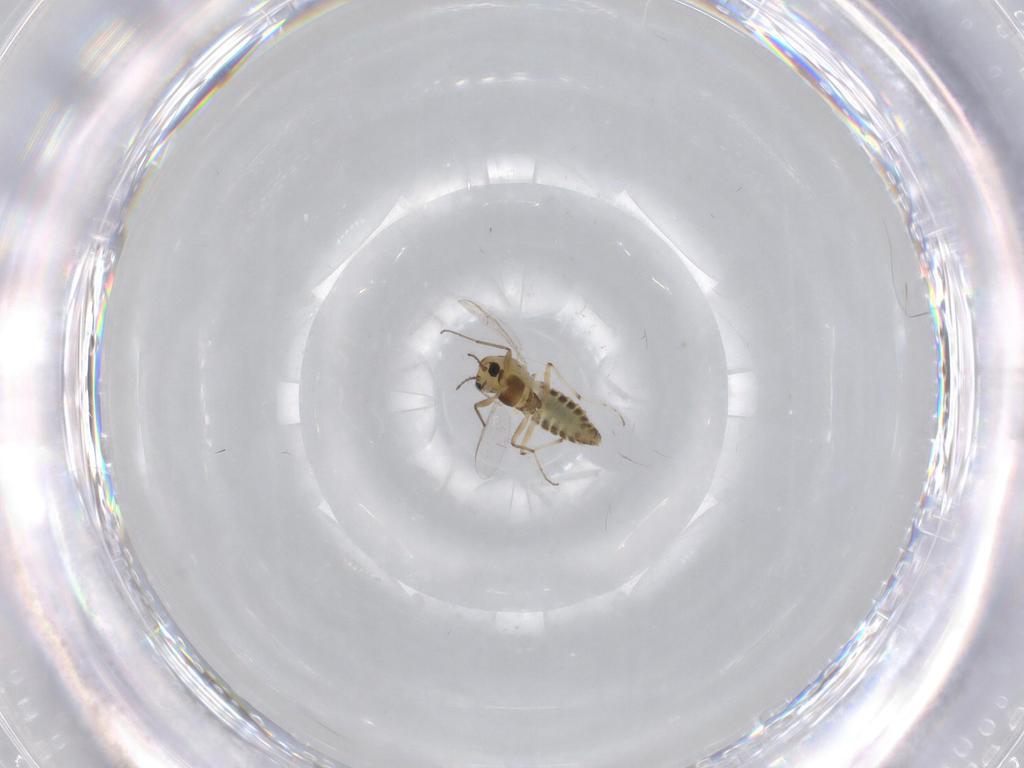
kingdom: Animalia
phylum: Arthropoda
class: Insecta
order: Diptera
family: Chironomidae
